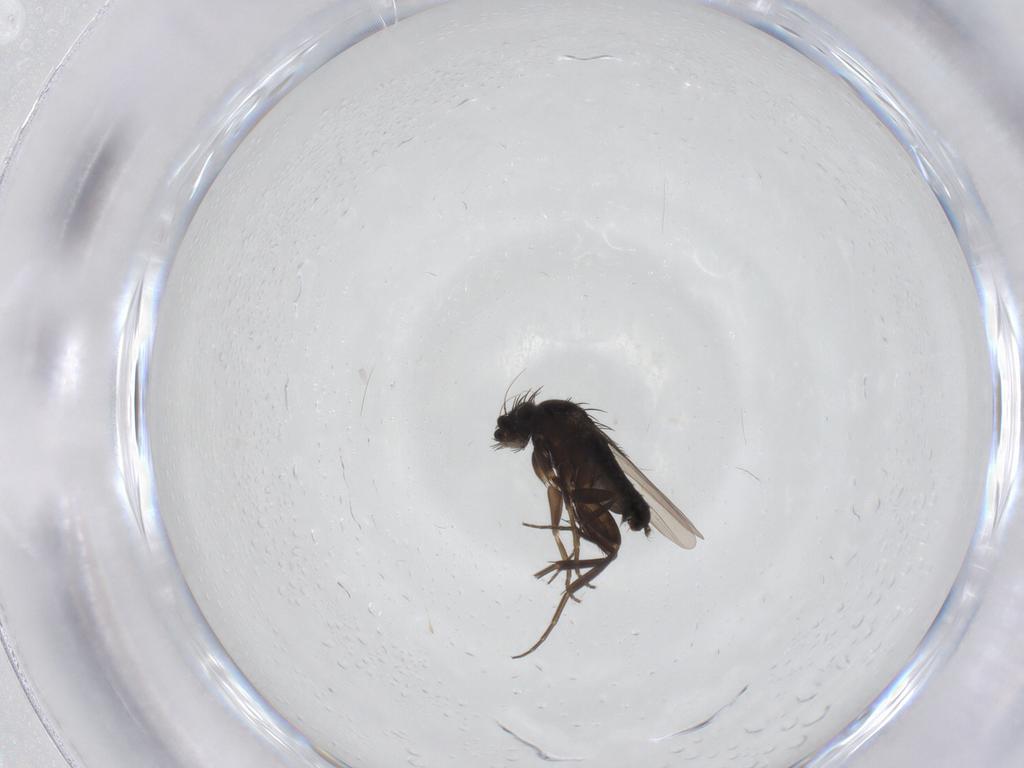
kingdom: Animalia
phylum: Arthropoda
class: Insecta
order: Diptera
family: Phoridae
